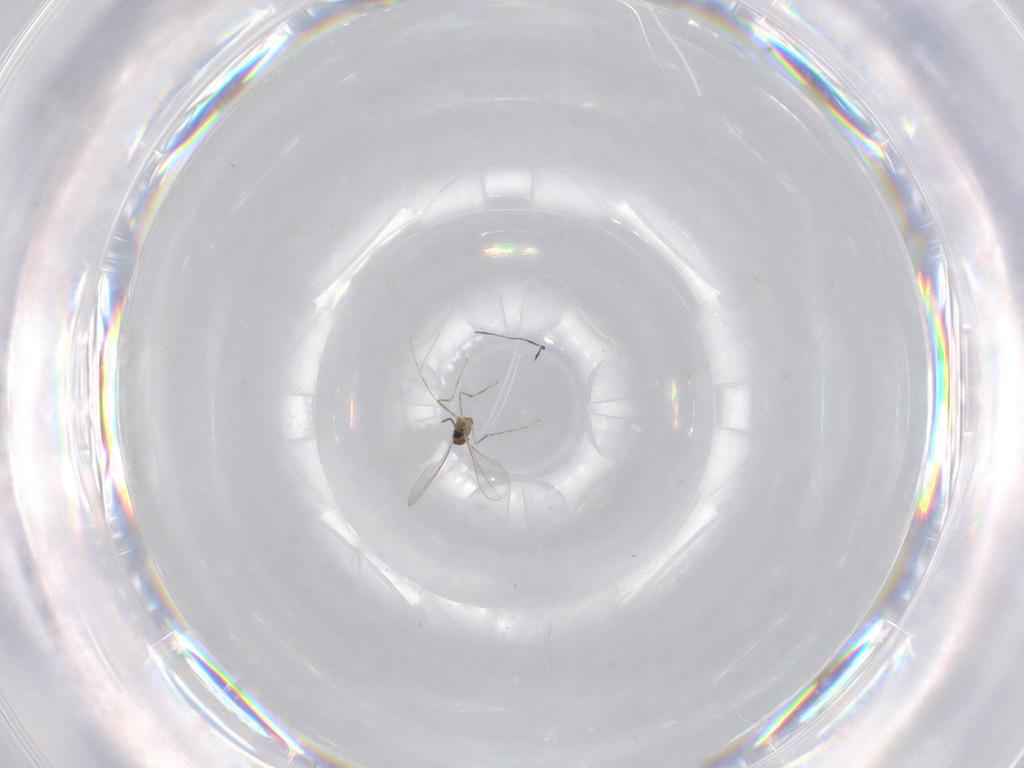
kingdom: Animalia
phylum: Arthropoda
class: Insecta
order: Diptera
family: Cecidomyiidae
